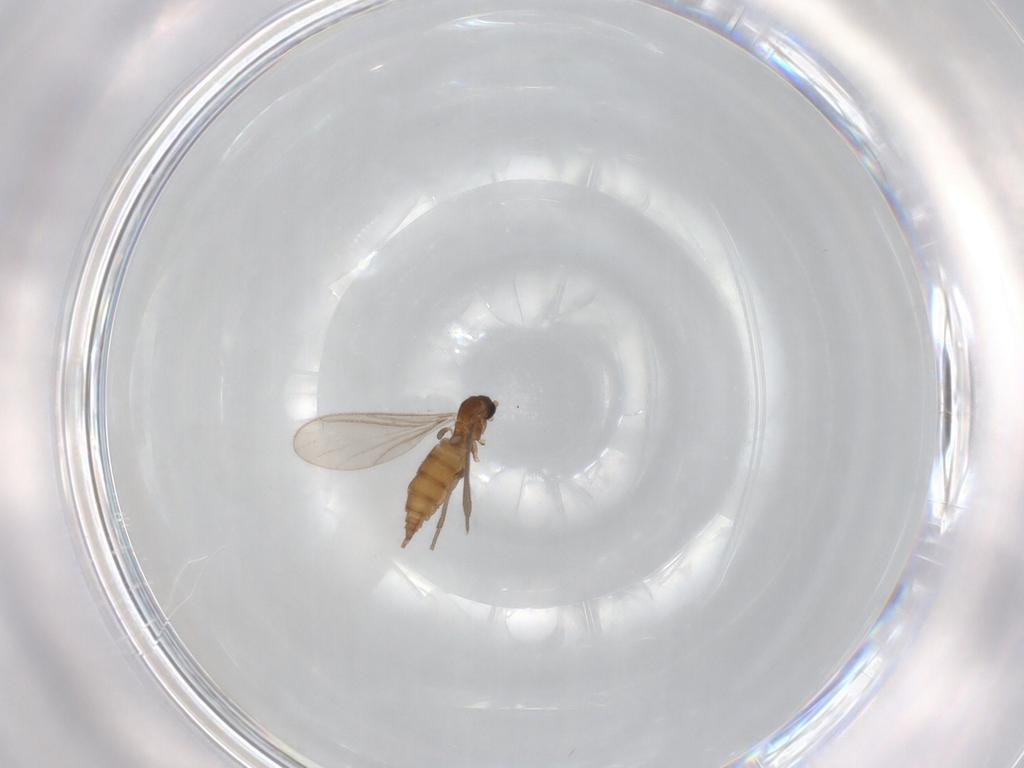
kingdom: Animalia
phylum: Arthropoda
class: Insecta
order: Diptera
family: Sciaridae
